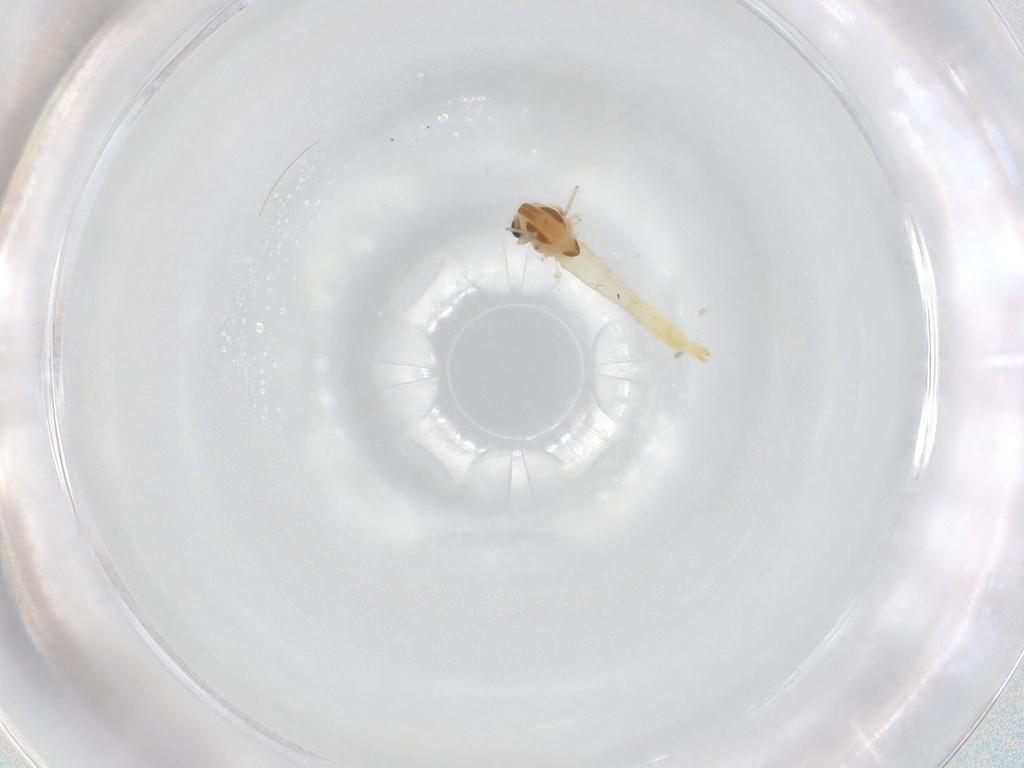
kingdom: Animalia
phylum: Arthropoda
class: Insecta
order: Diptera
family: Chironomidae
